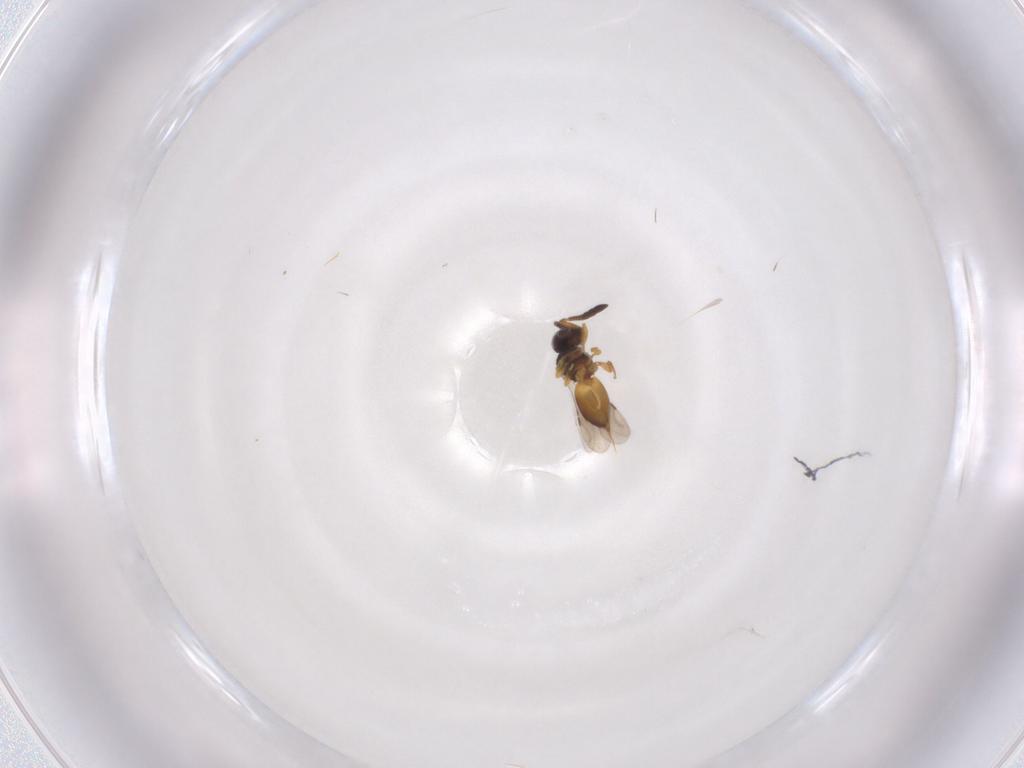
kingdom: Animalia
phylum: Arthropoda
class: Insecta
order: Hymenoptera
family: Ceraphronidae
